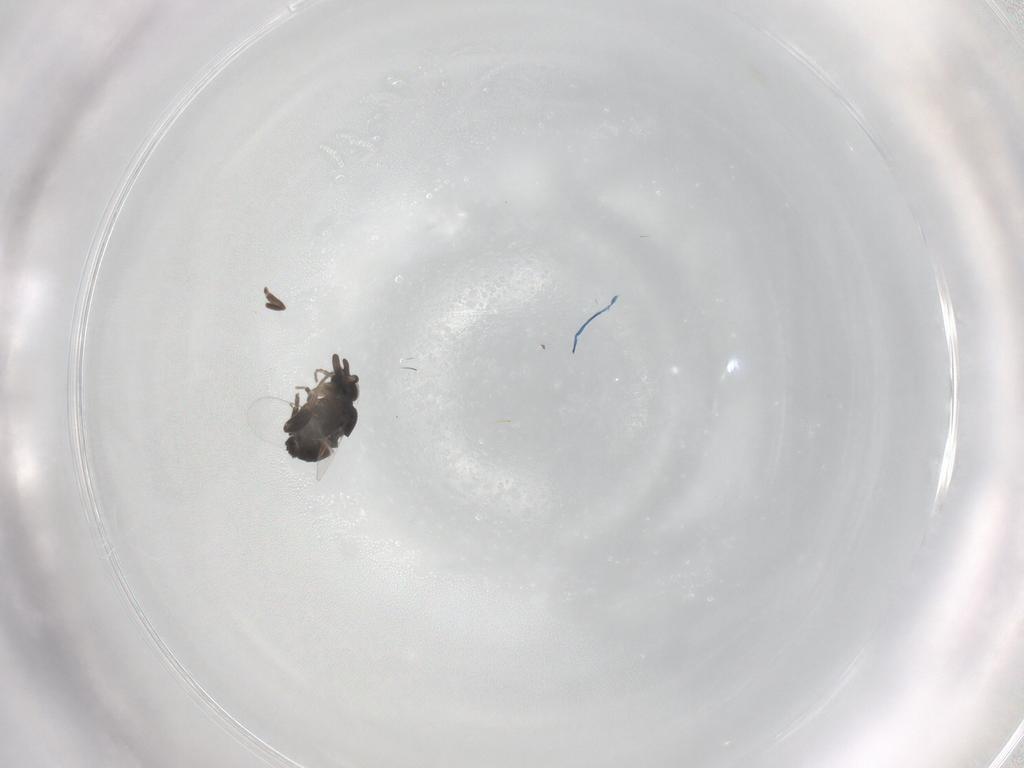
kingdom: Animalia
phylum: Arthropoda
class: Insecta
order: Diptera
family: Phoridae
